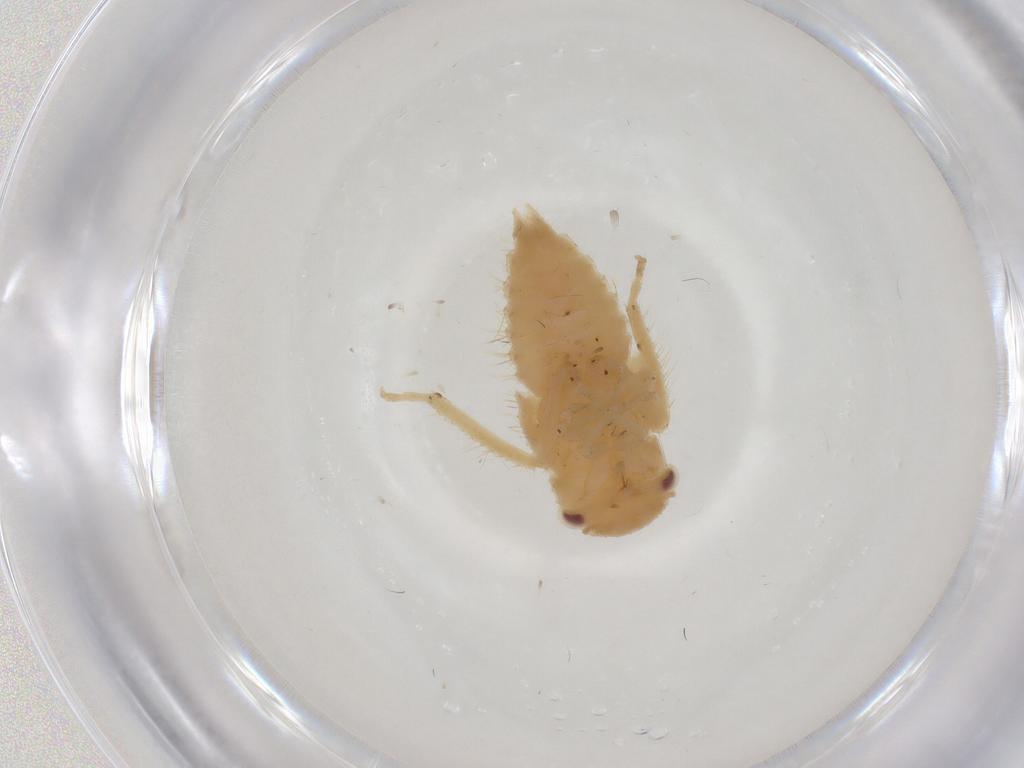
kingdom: Animalia
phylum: Arthropoda
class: Insecta
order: Hemiptera
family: Cicadellidae
